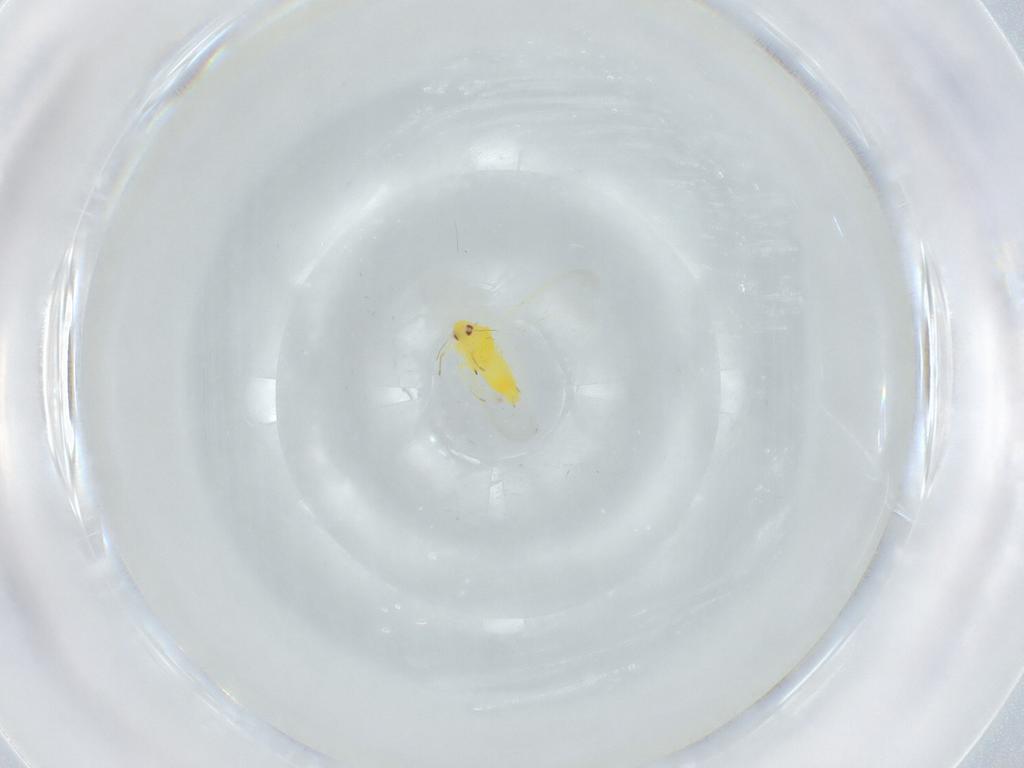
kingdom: Animalia
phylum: Arthropoda
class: Insecta
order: Hemiptera
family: Aleyrodidae
